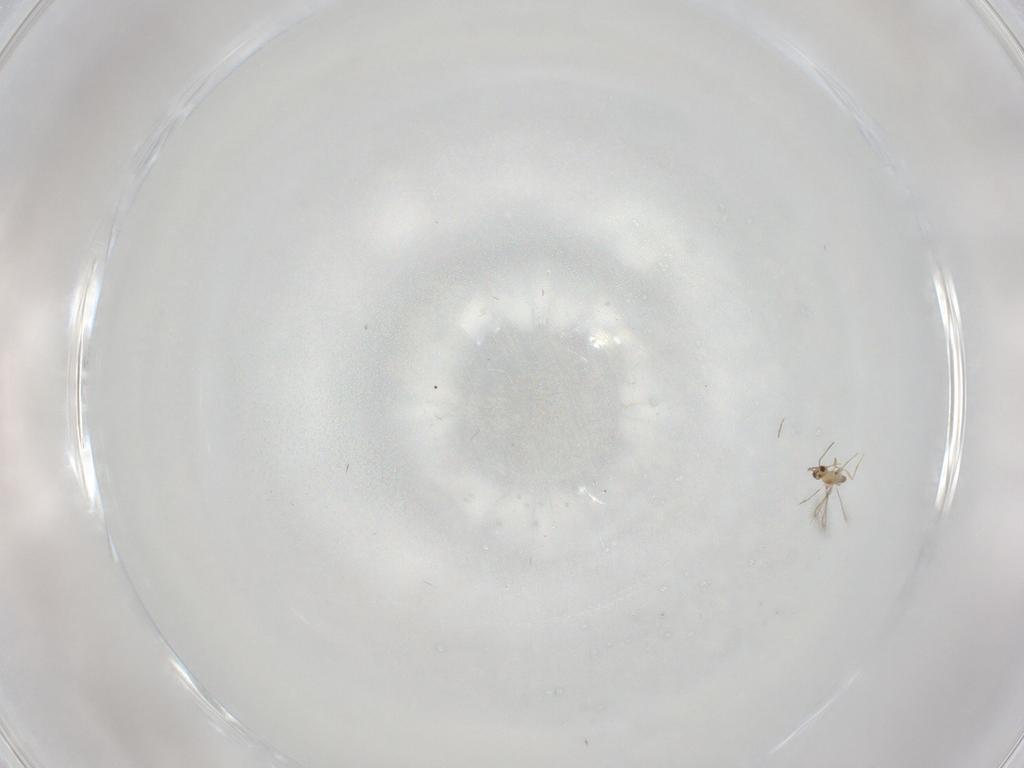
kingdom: Animalia
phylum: Arthropoda
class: Insecta
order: Hymenoptera
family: Mymaridae
